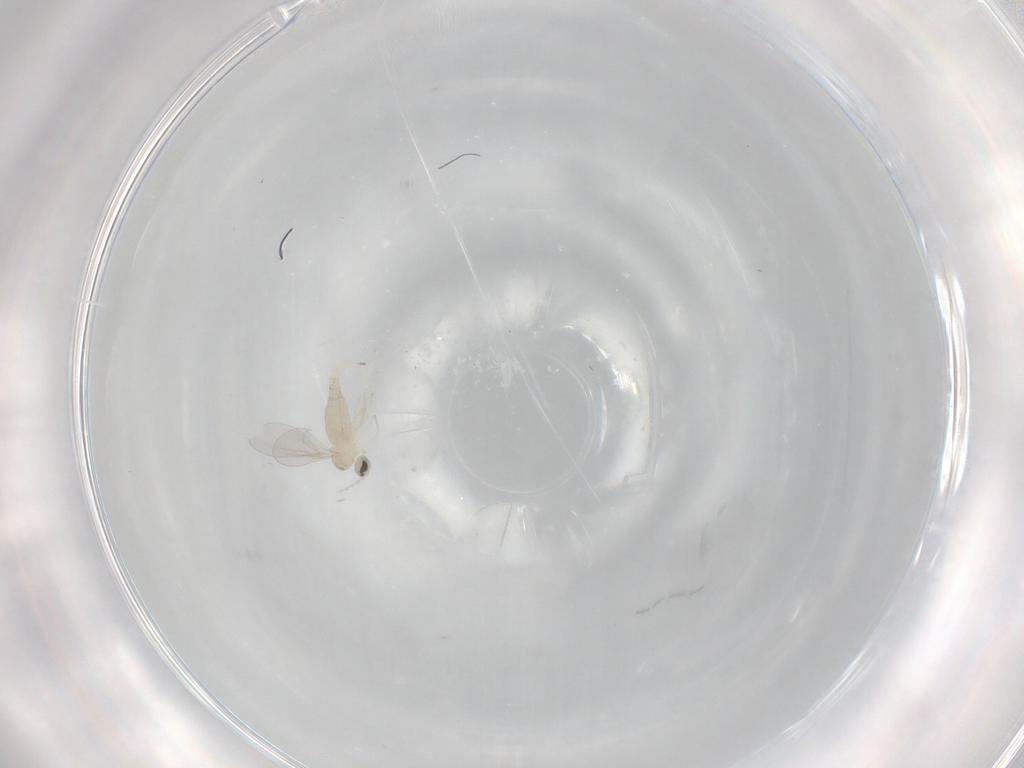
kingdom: Animalia
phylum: Arthropoda
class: Insecta
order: Diptera
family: Cecidomyiidae
